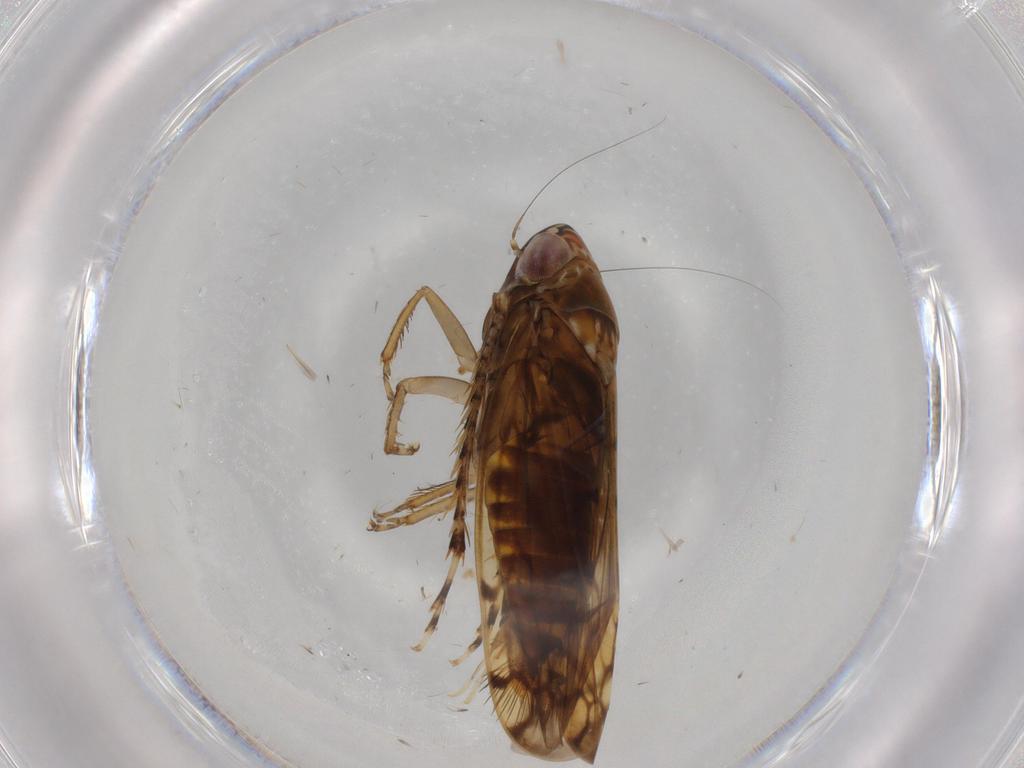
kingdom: Animalia
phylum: Arthropoda
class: Insecta
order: Hemiptera
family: Cicadellidae
